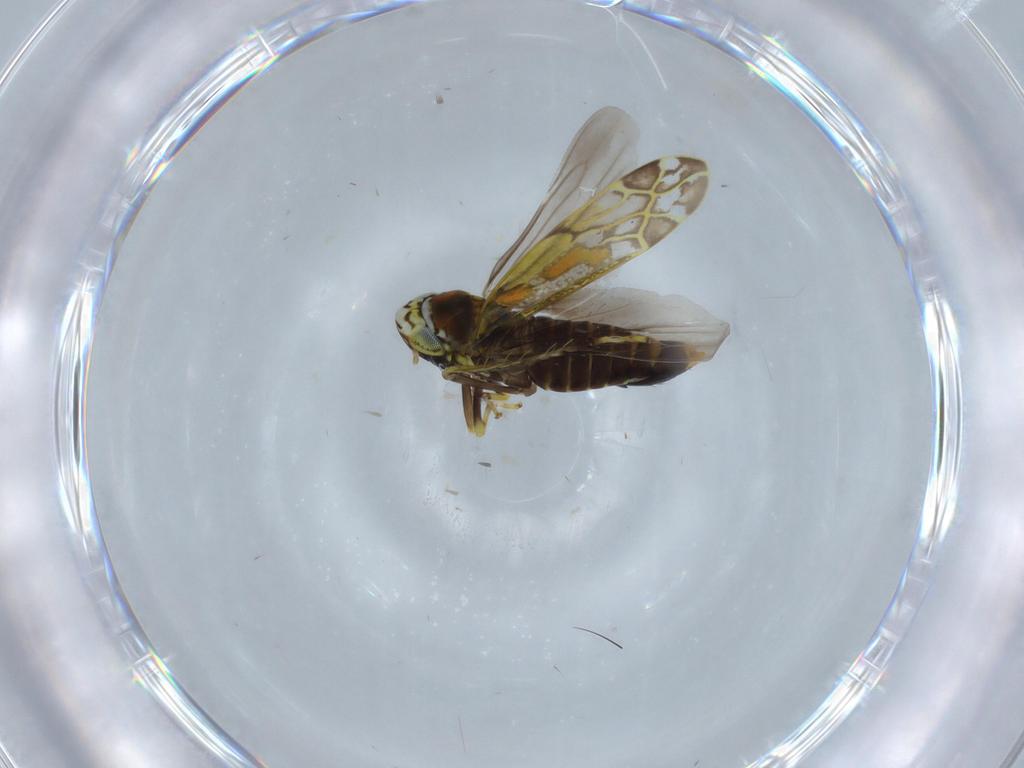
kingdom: Animalia
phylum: Arthropoda
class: Insecta
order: Hemiptera
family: Cicadellidae
